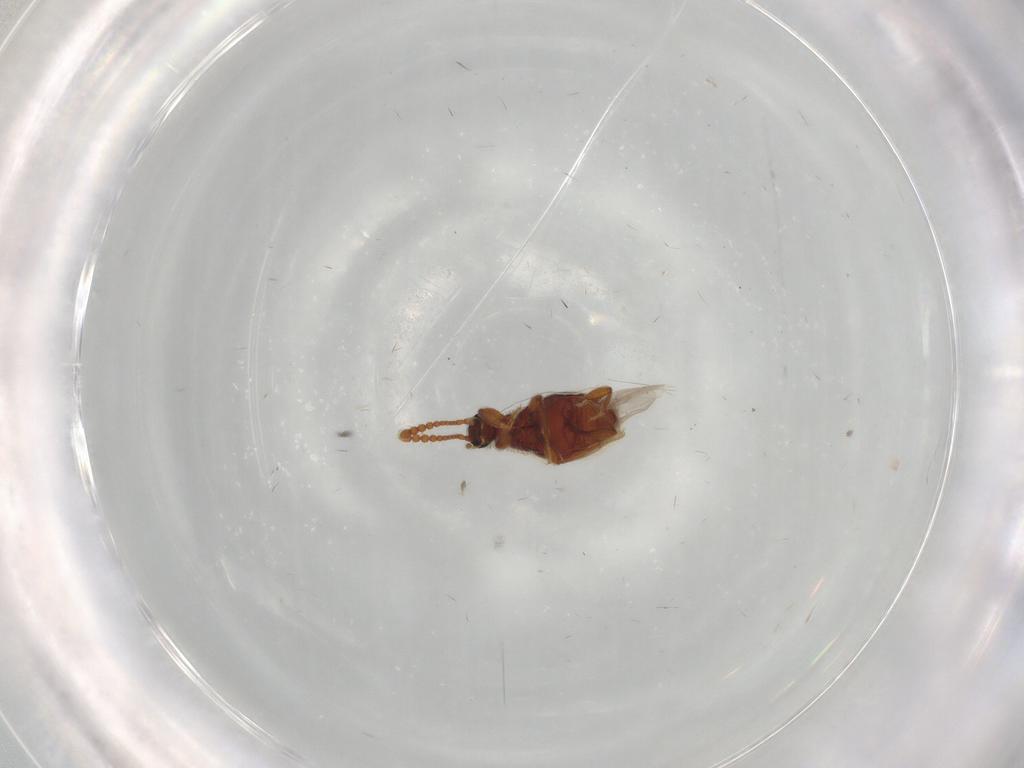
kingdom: Animalia
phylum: Arthropoda
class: Insecta
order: Coleoptera
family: Staphylinidae
